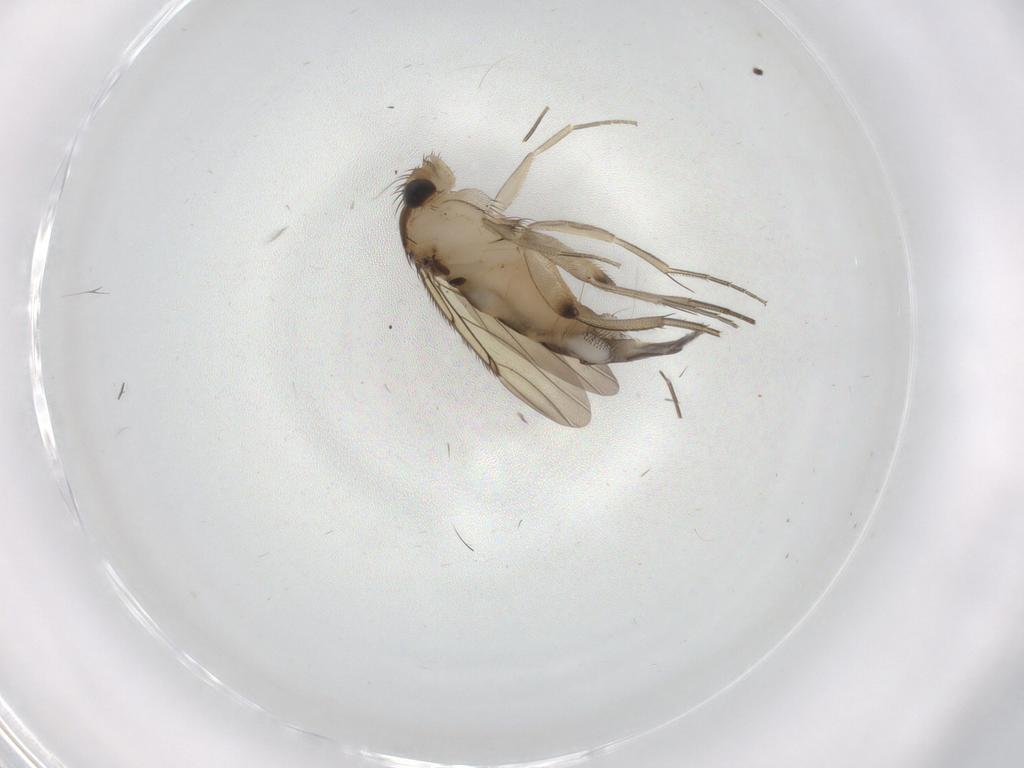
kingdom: Animalia
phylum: Arthropoda
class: Insecta
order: Diptera
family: Phoridae
